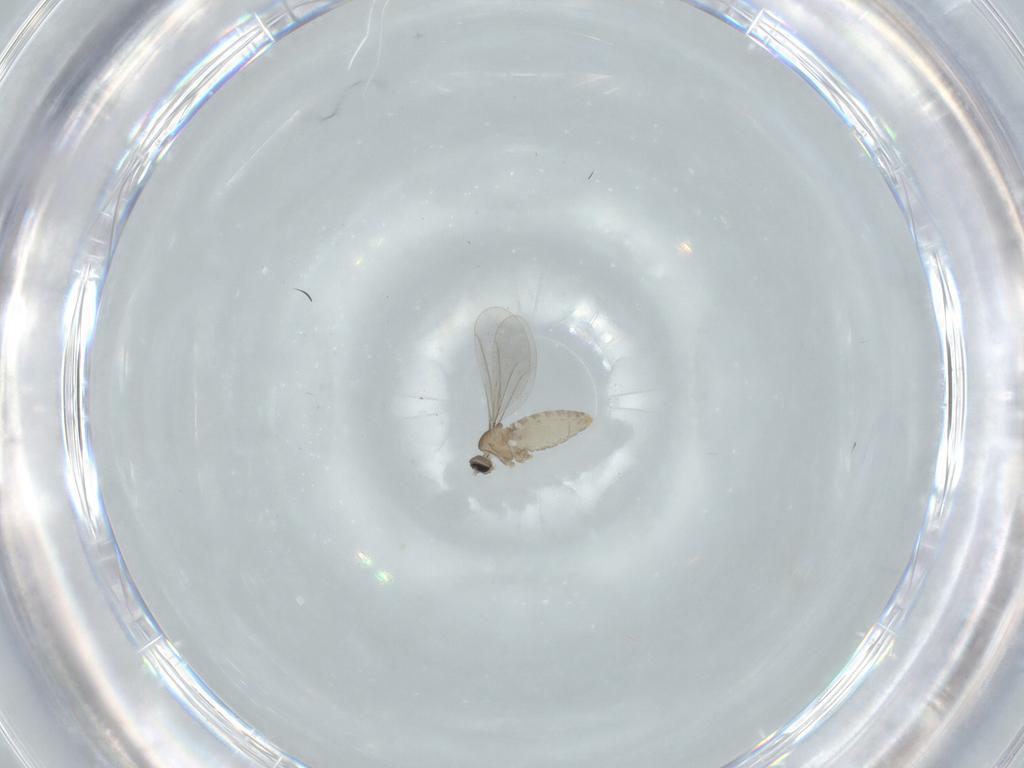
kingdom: Animalia
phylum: Arthropoda
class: Insecta
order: Diptera
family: Cecidomyiidae
